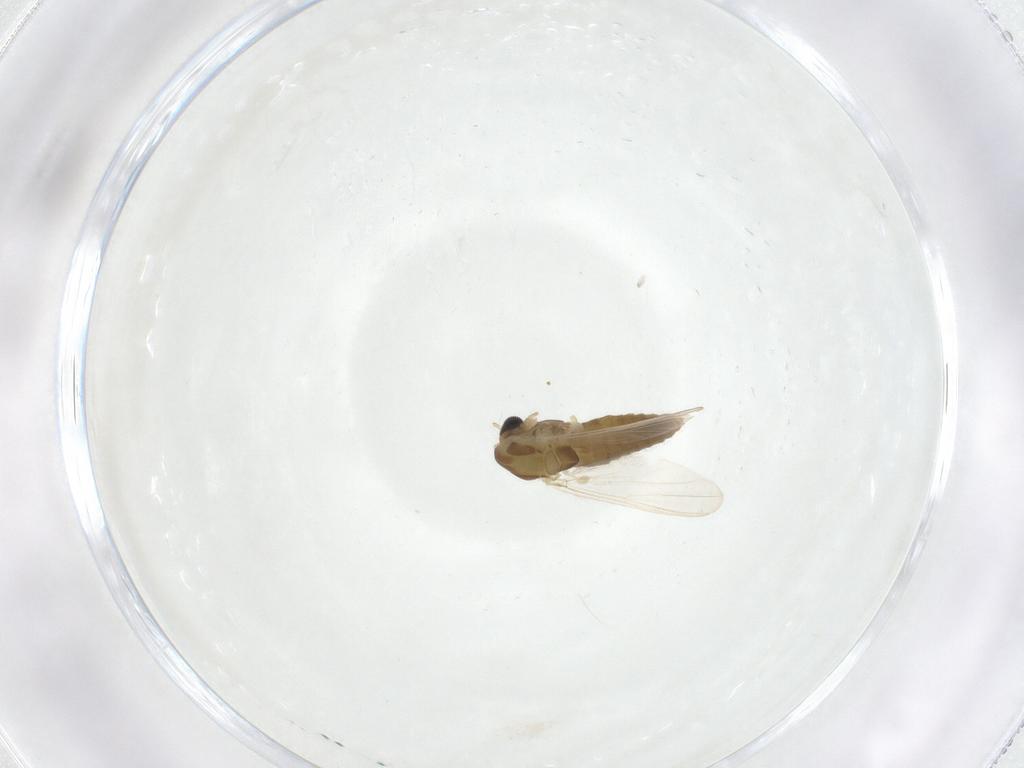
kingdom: Animalia
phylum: Arthropoda
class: Insecta
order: Diptera
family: Chironomidae
